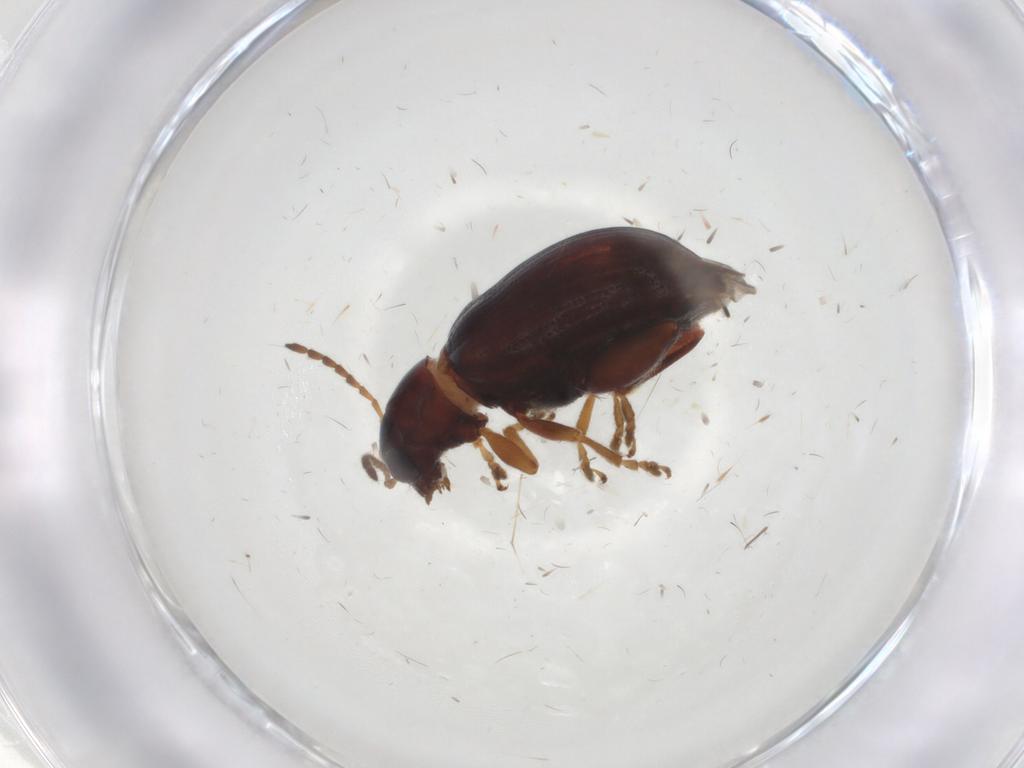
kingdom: Animalia
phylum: Arthropoda
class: Insecta
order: Coleoptera
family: Chrysomelidae
